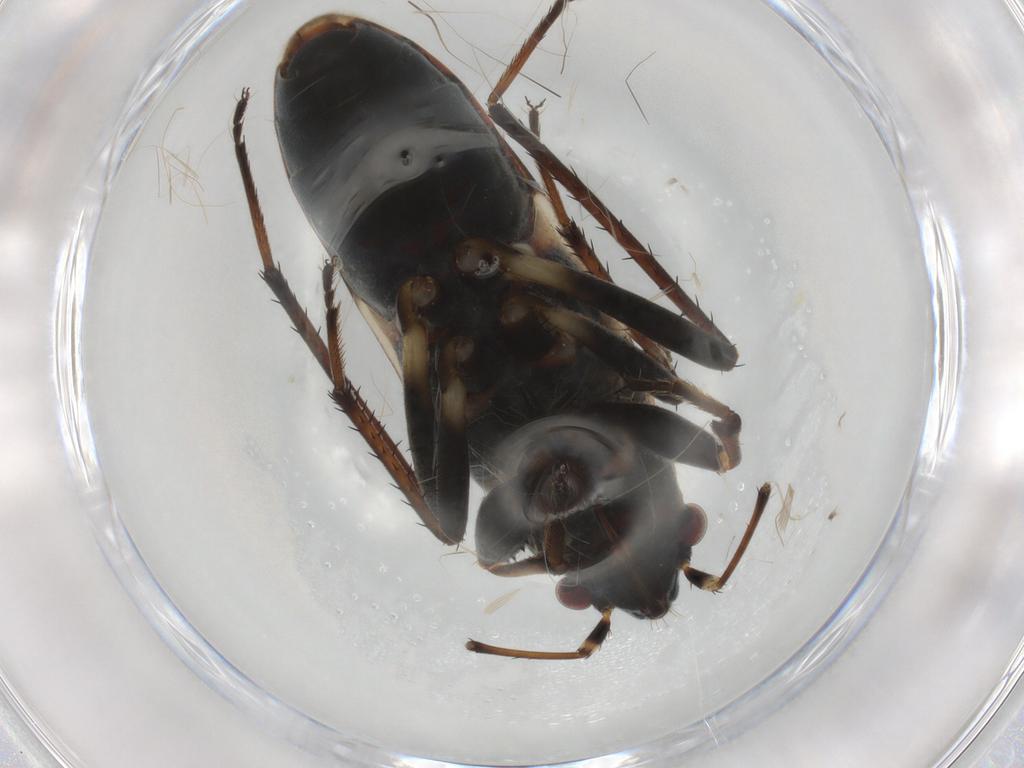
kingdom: Animalia
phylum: Arthropoda
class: Insecta
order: Hemiptera
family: Rhyparochromidae
